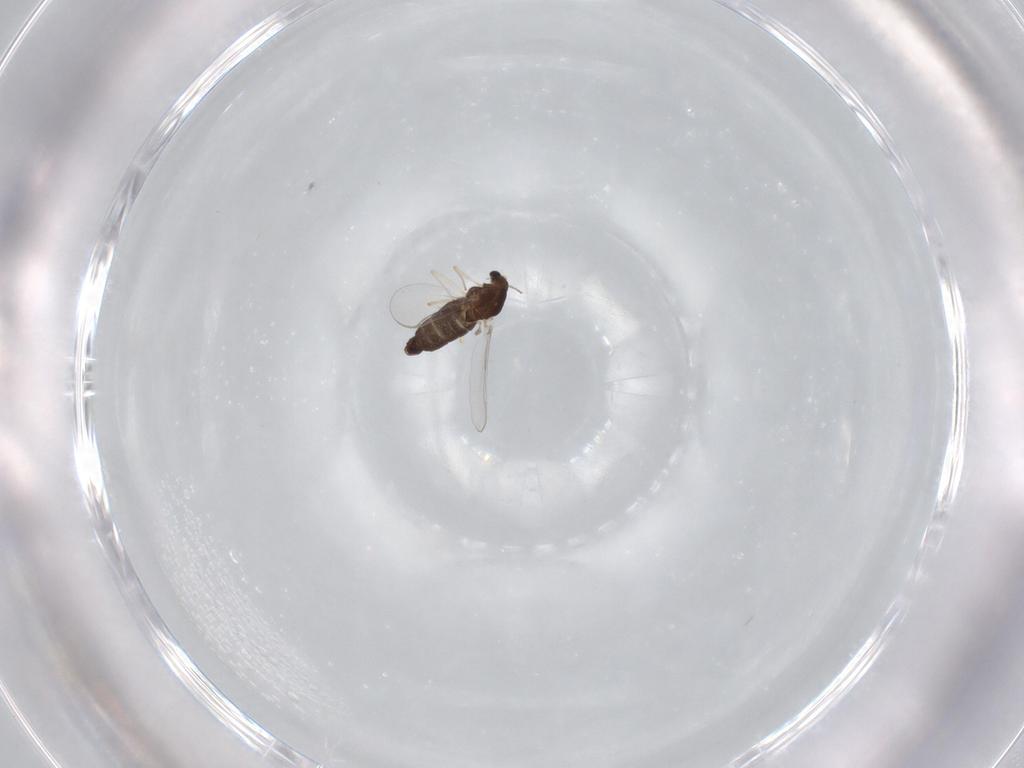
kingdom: Animalia
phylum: Arthropoda
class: Insecta
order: Diptera
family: Chironomidae
